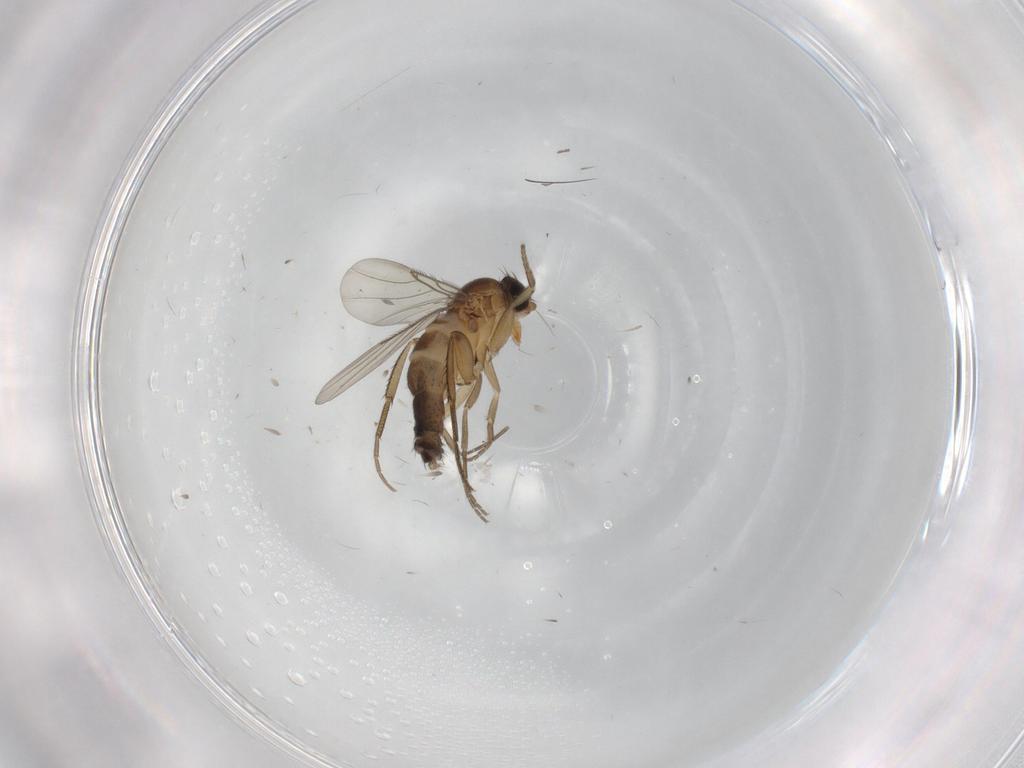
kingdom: Animalia
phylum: Arthropoda
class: Insecta
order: Diptera
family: Phoridae
